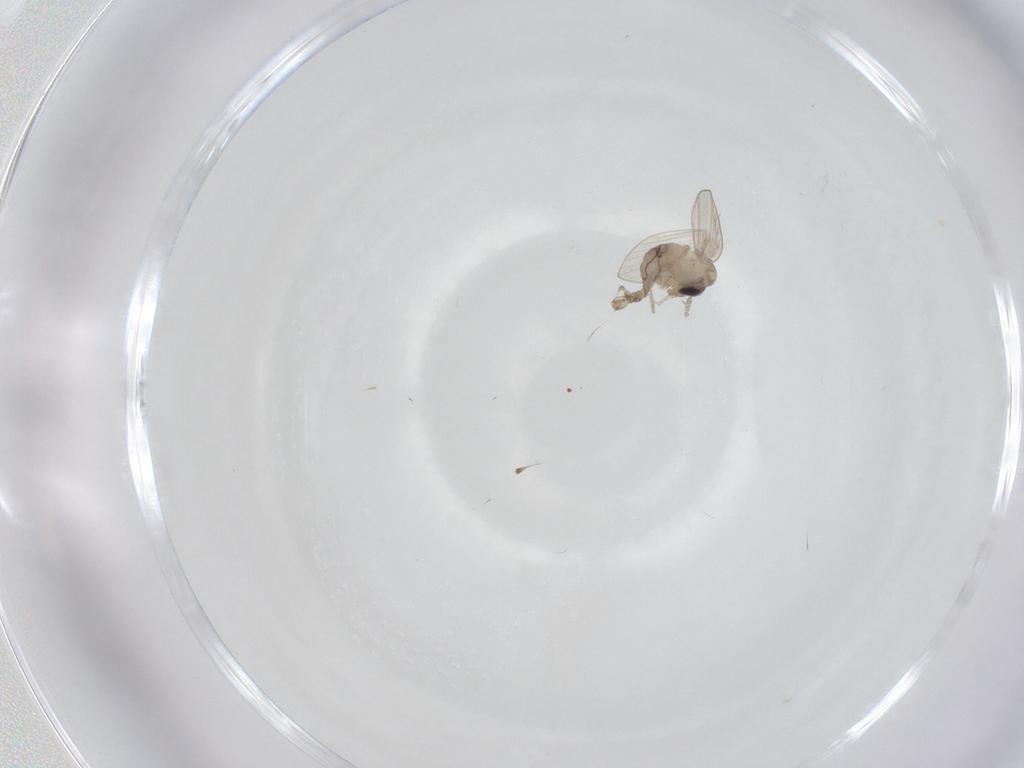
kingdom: Animalia
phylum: Arthropoda
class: Insecta
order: Diptera
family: Psychodidae
